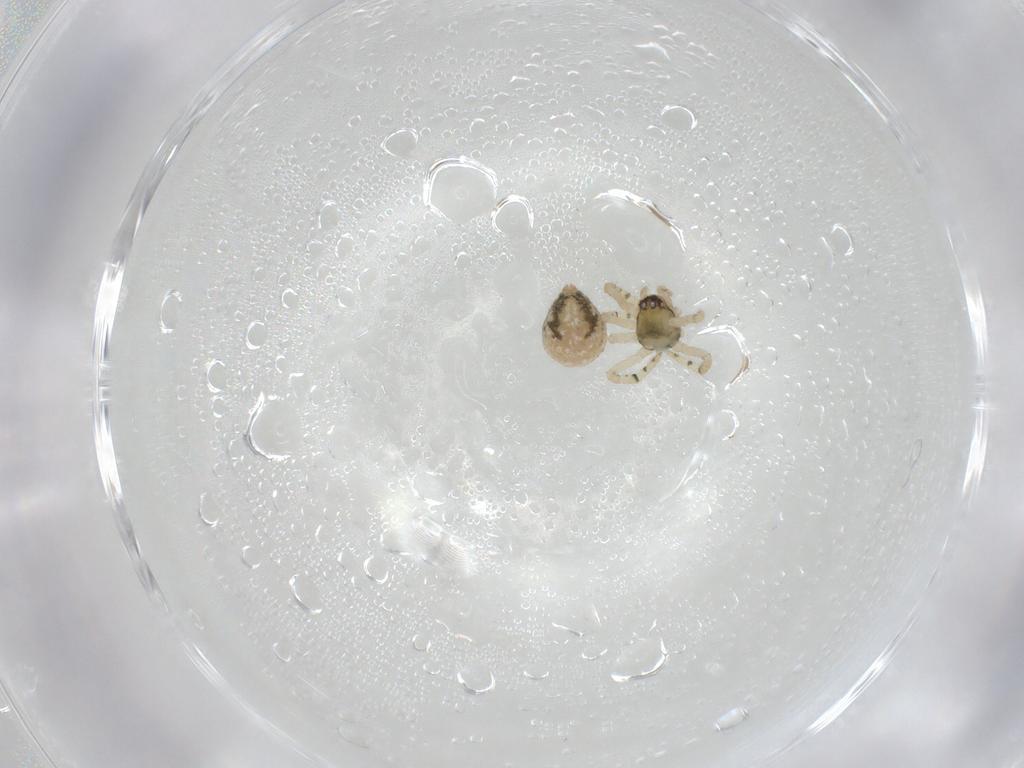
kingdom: Animalia
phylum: Arthropoda
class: Arachnida
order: Araneae
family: Theridiidae
